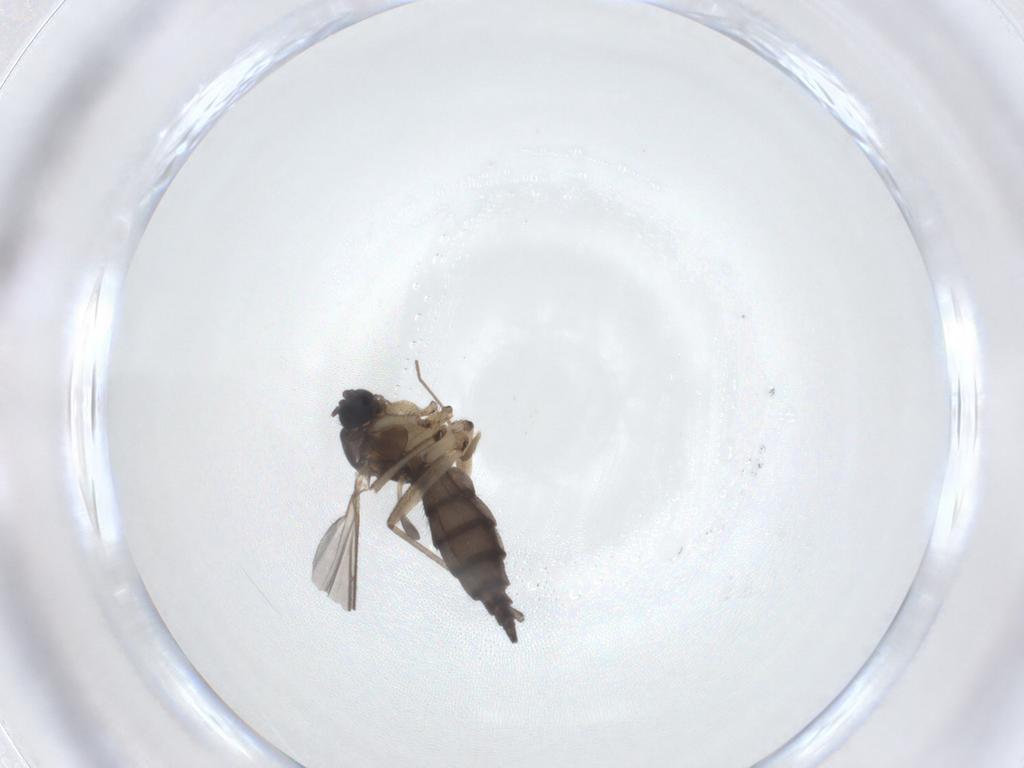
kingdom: Animalia
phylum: Arthropoda
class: Insecta
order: Diptera
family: Sciaridae
